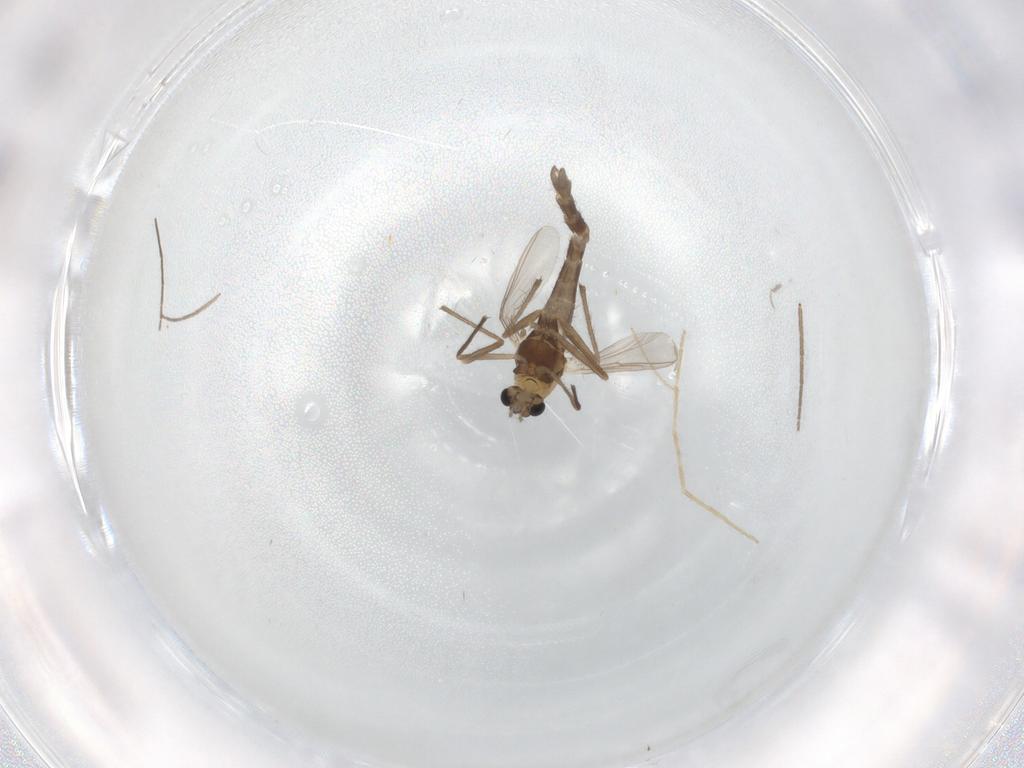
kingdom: Animalia
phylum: Arthropoda
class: Insecta
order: Diptera
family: Chironomidae
